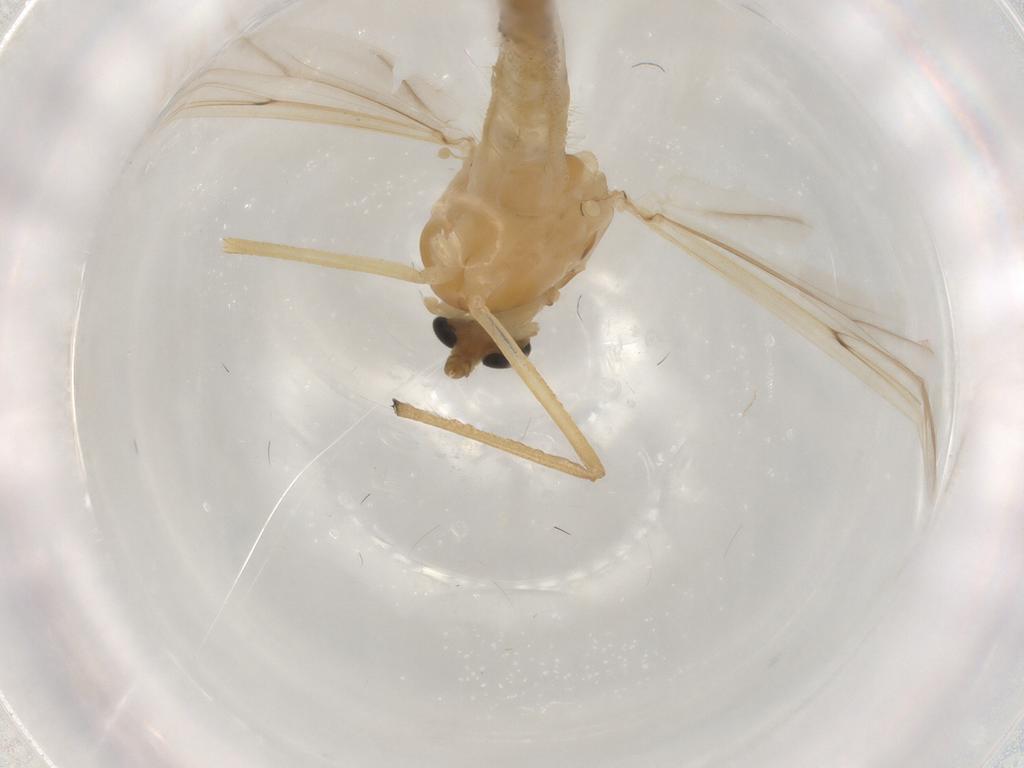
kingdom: Animalia
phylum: Arthropoda
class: Insecta
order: Diptera
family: Chironomidae
